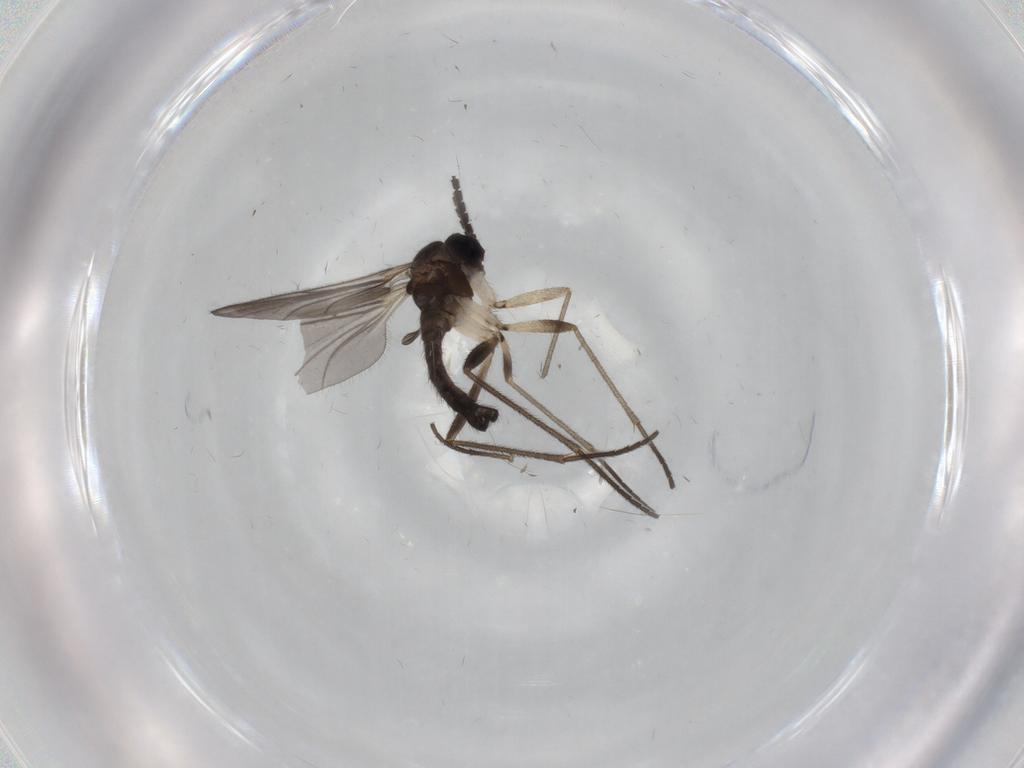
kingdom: Animalia
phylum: Arthropoda
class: Insecta
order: Diptera
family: Sciaridae
